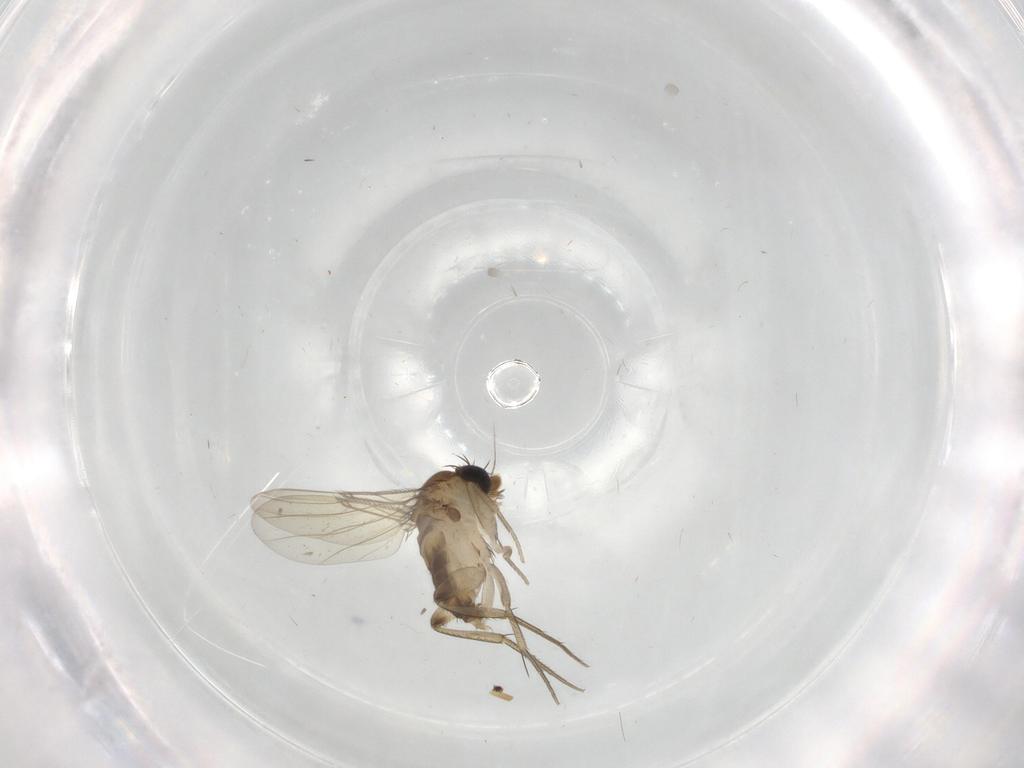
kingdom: Animalia
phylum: Arthropoda
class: Insecta
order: Diptera
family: Phoridae
